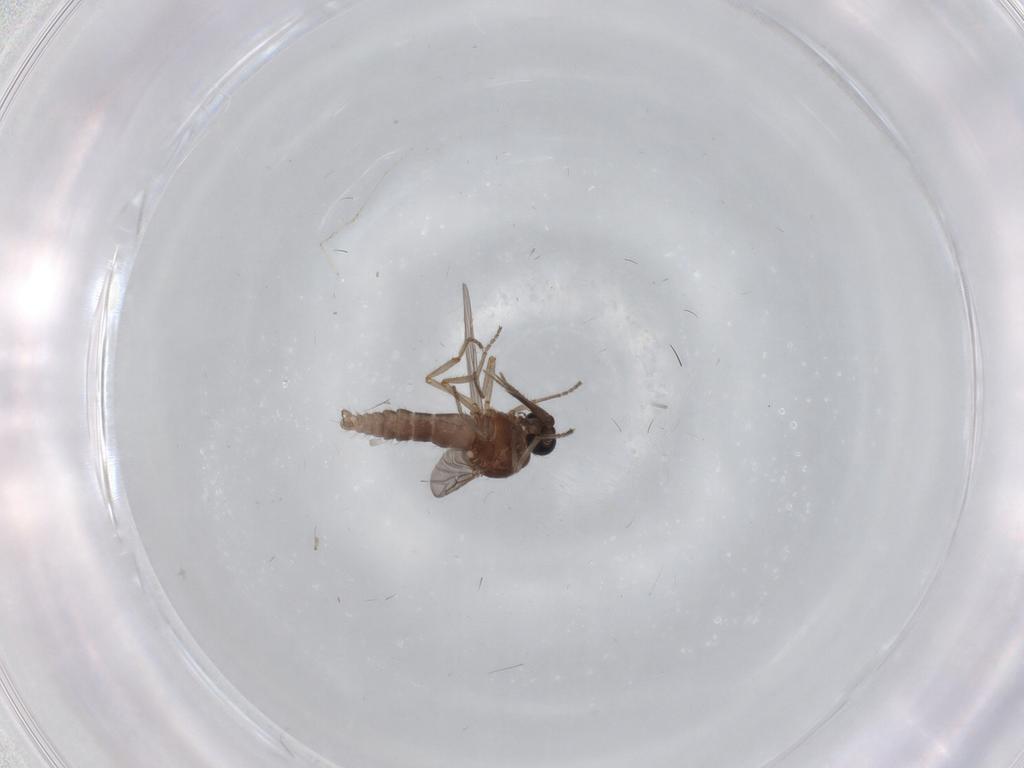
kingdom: Animalia
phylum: Arthropoda
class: Insecta
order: Diptera
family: Ceratopogonidae
